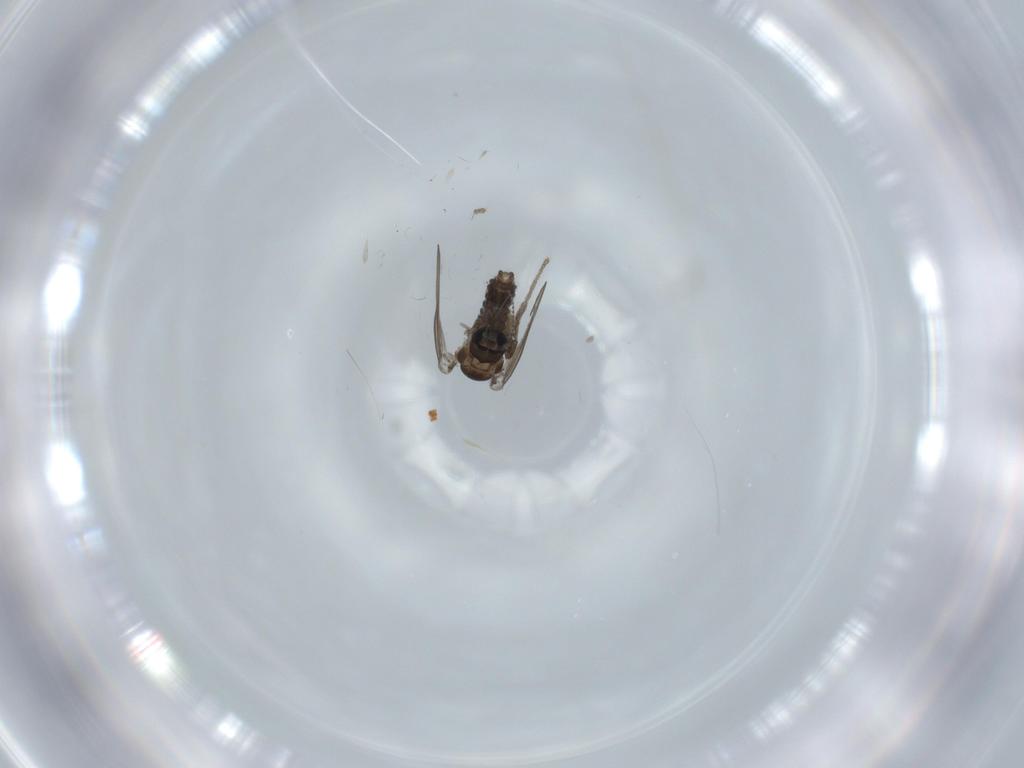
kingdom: Animalia
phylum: Arthropoda
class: Insecta
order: Diptera
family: Psychodidae
